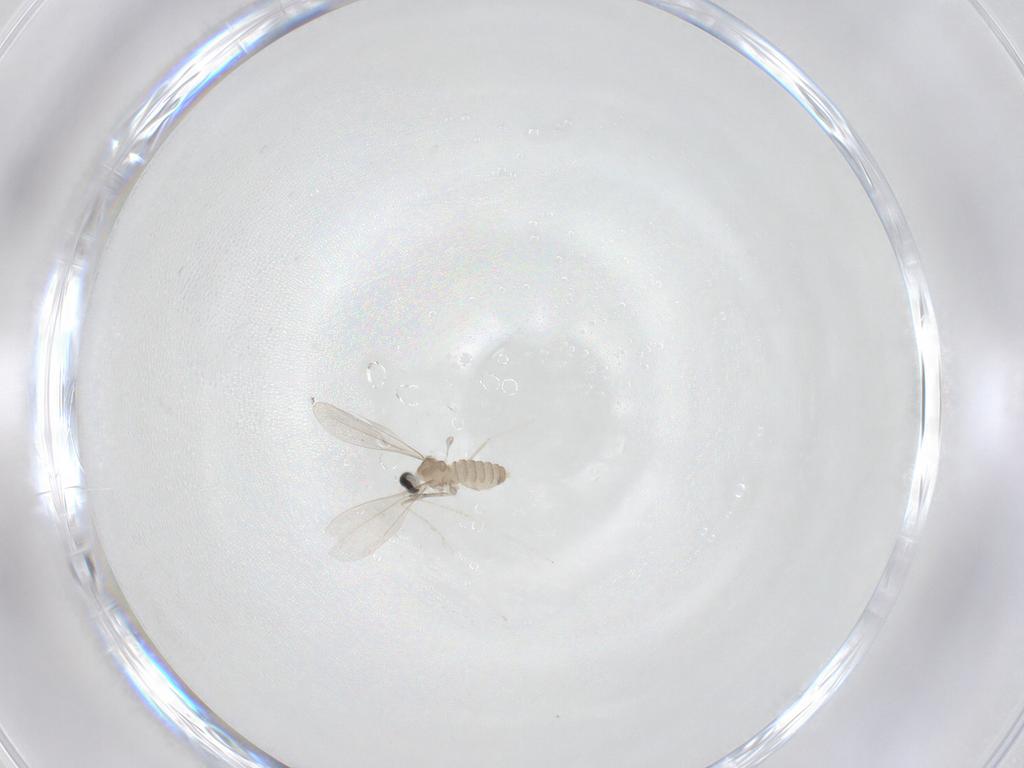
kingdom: Animalia
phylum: Arthropoda
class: Insecta
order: Diptera
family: Cecidomyiidae
